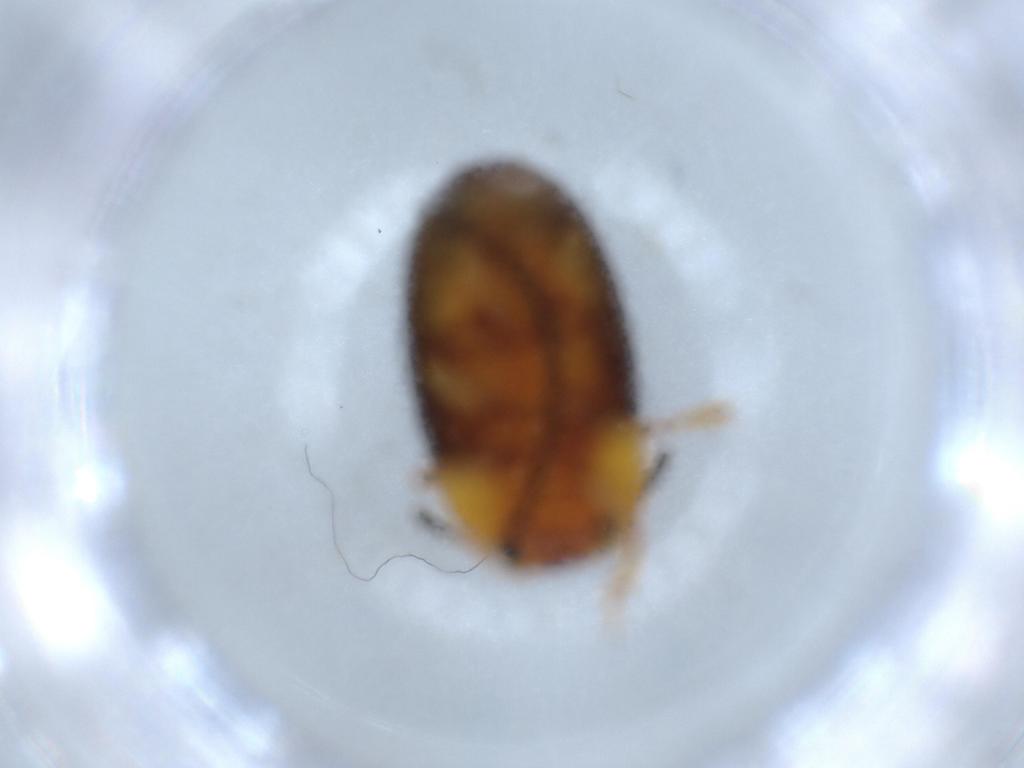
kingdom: Animalia
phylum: Arthropoda
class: Insecta
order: Coleoptera
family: Erotylidae
